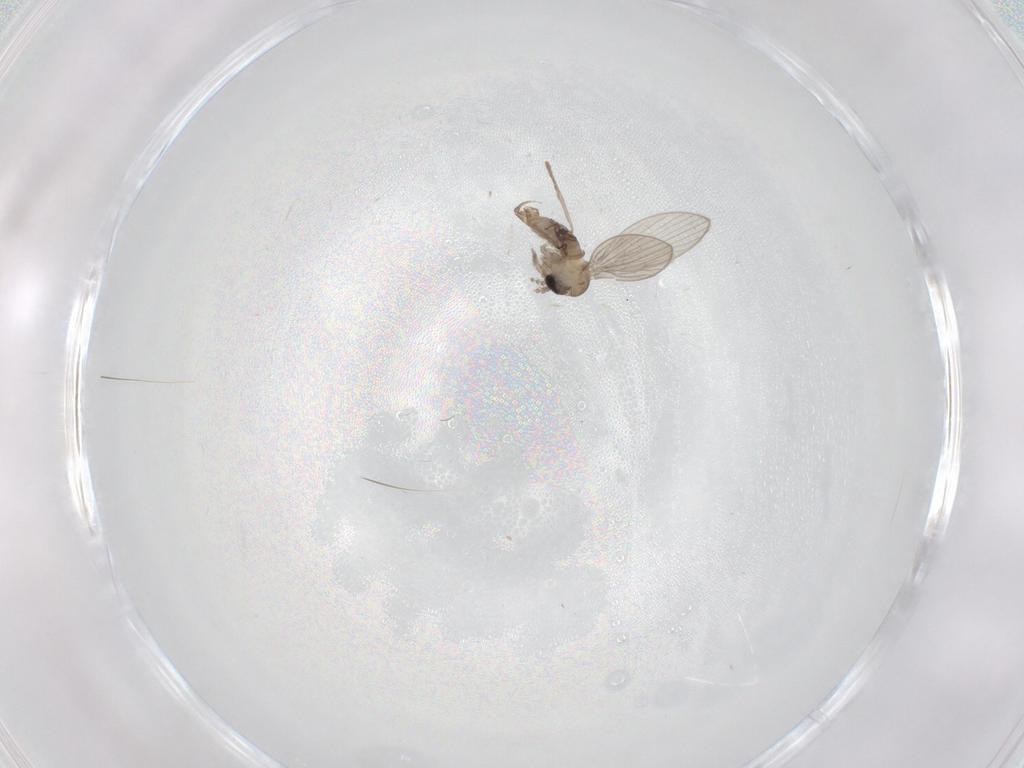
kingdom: Animalia
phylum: Arthropoda
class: Insecta
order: Diptera
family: Psychodidae
